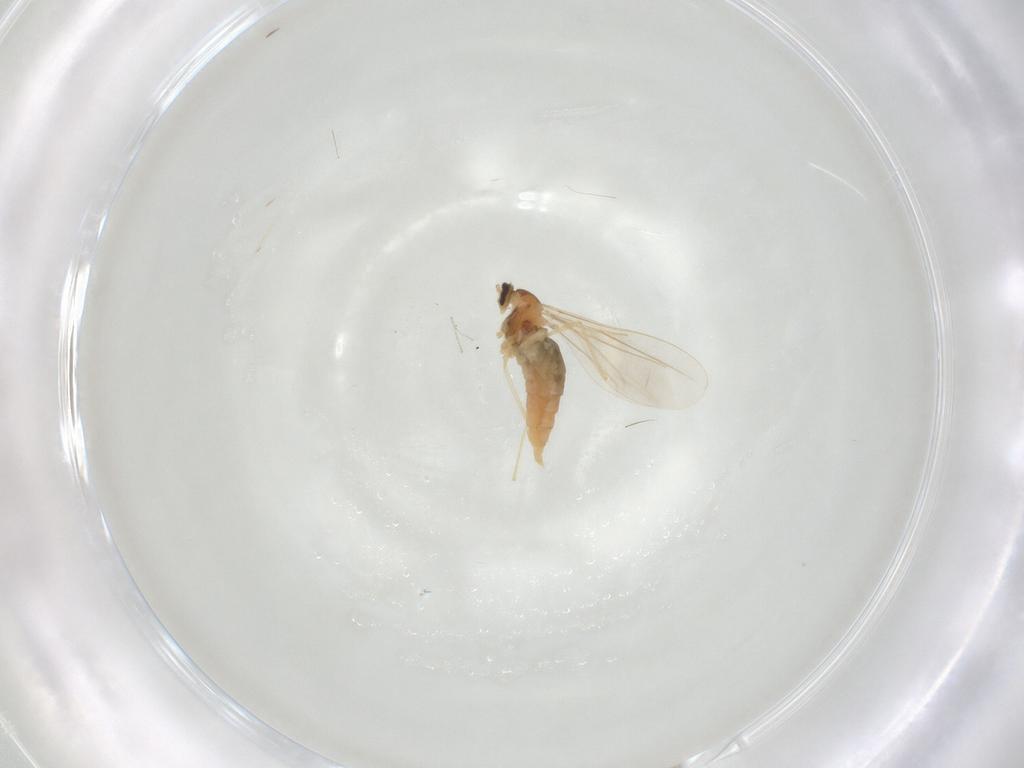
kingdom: Animalia
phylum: Arthropoda
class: Insecta
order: Diptera
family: Cecidomyiidae
